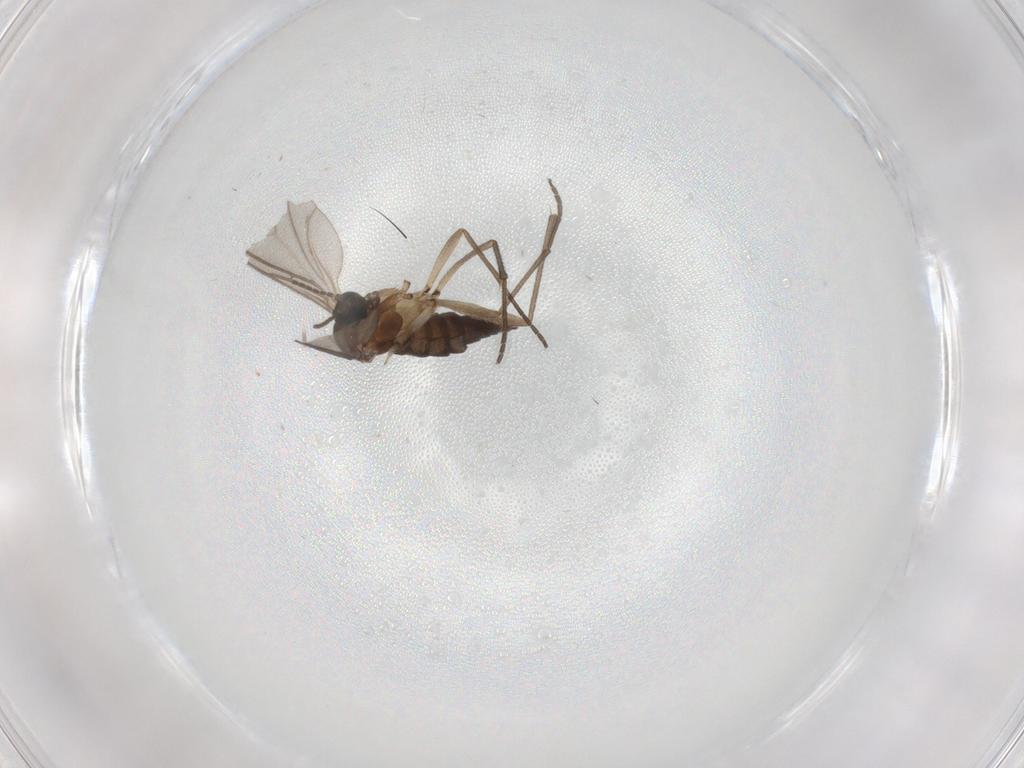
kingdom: Animalia
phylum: Arthropoda
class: Insecta
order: Diptera
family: Sciaridae
